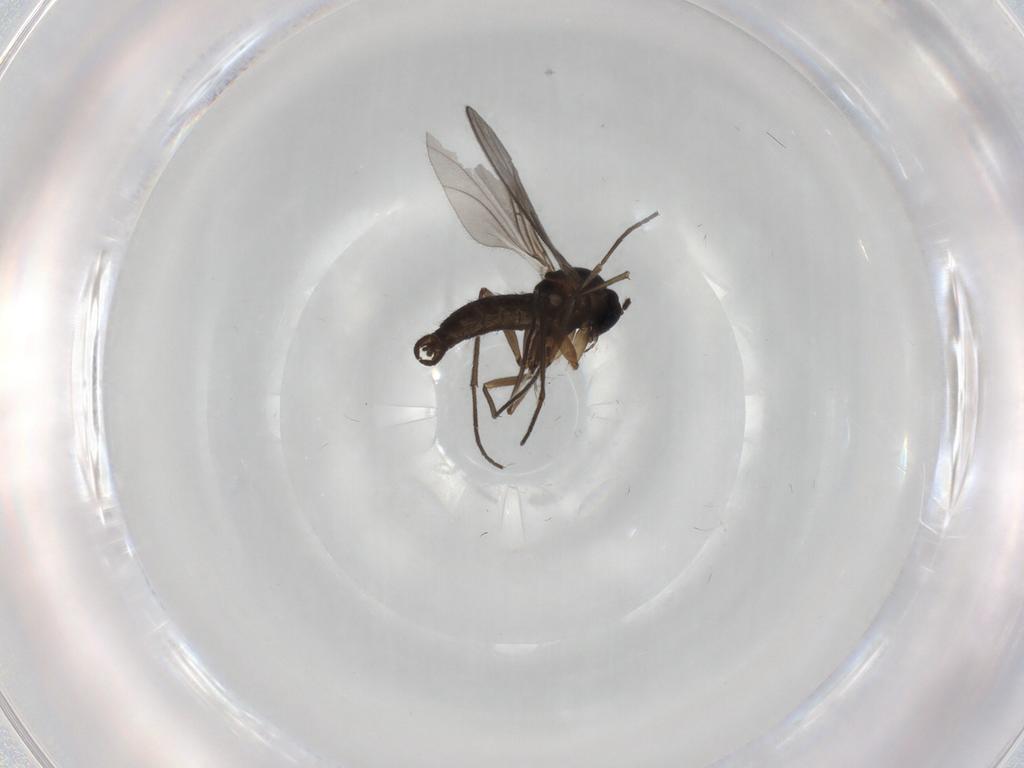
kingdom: Animalia
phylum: Arthropoda
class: Insecta
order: Diptera
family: Sciaridae
